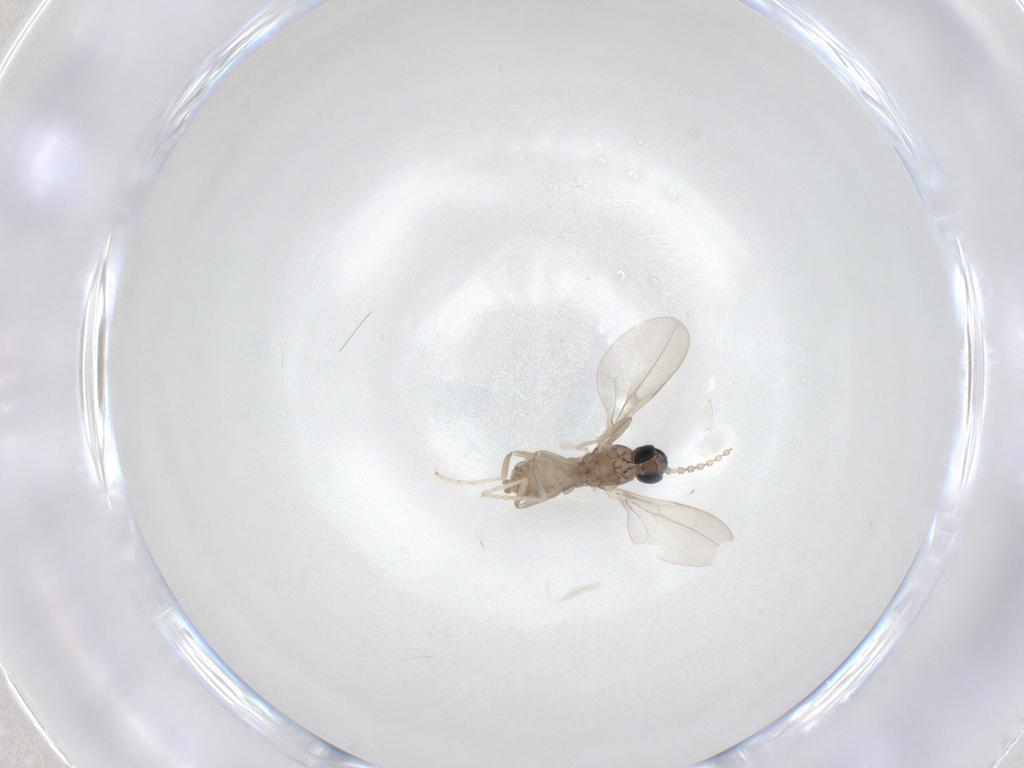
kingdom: Animalia
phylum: Arthropoda
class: Insecta
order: Diptera
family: Cecidomyiidae
